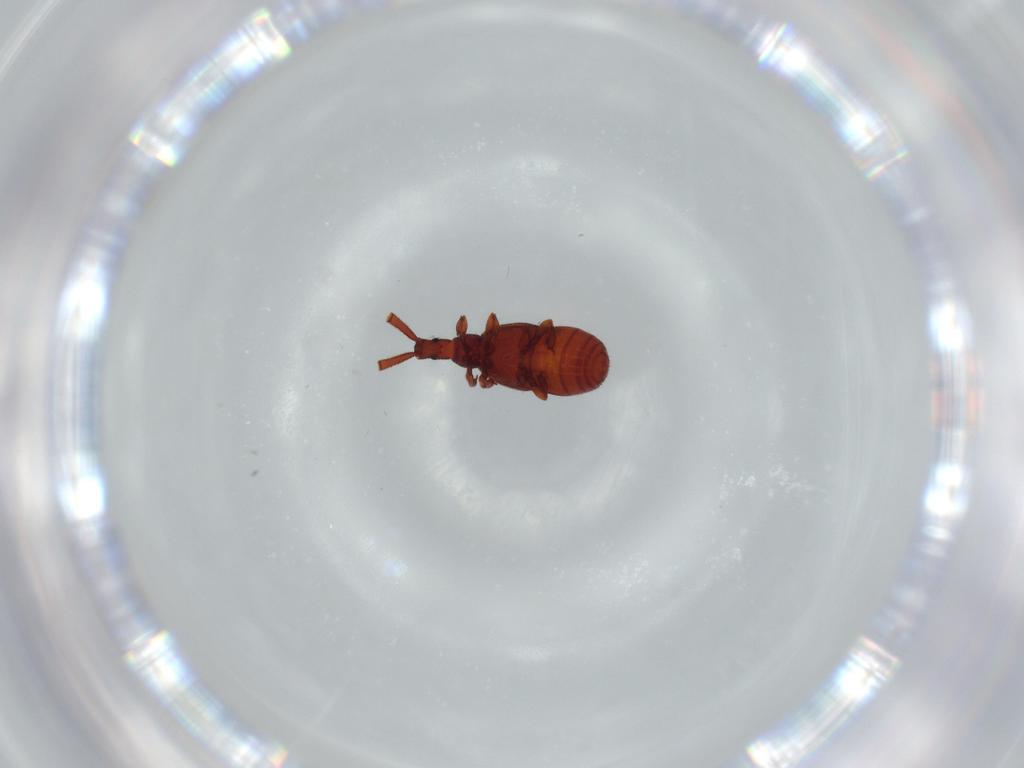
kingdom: Animalia
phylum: Arthropoda
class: Insecta
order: Coleoptera
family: Staphylinidae
